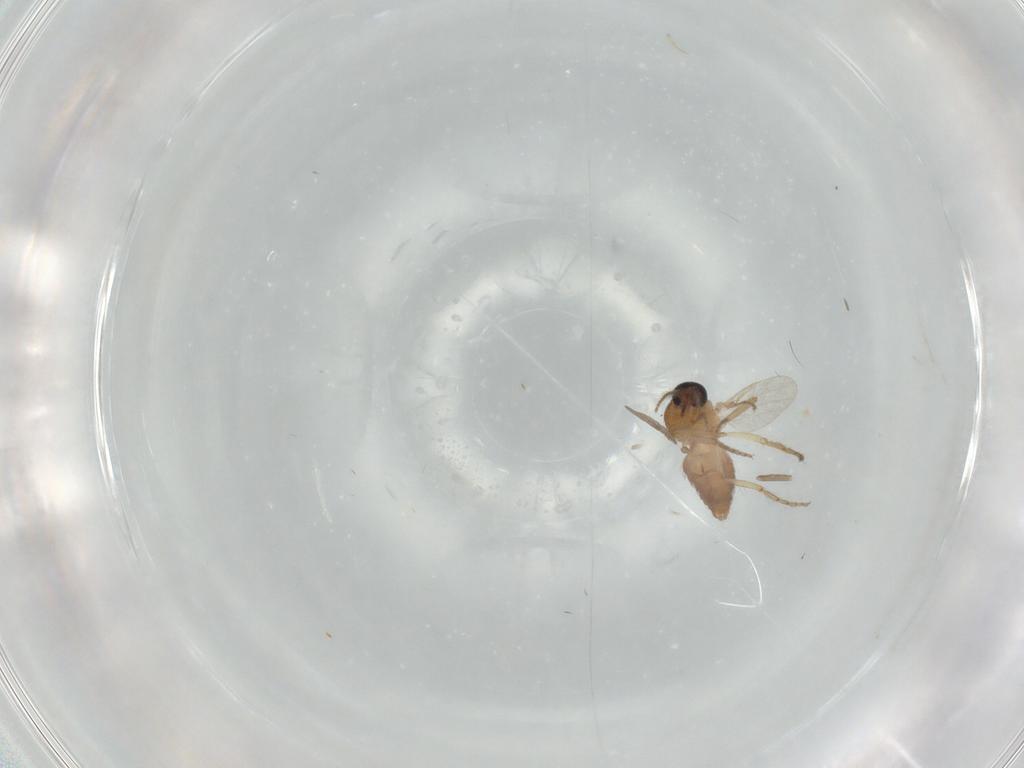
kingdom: Animalia
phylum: Arthropoda
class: Insecta
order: Diptera
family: Ceratopogonidae
